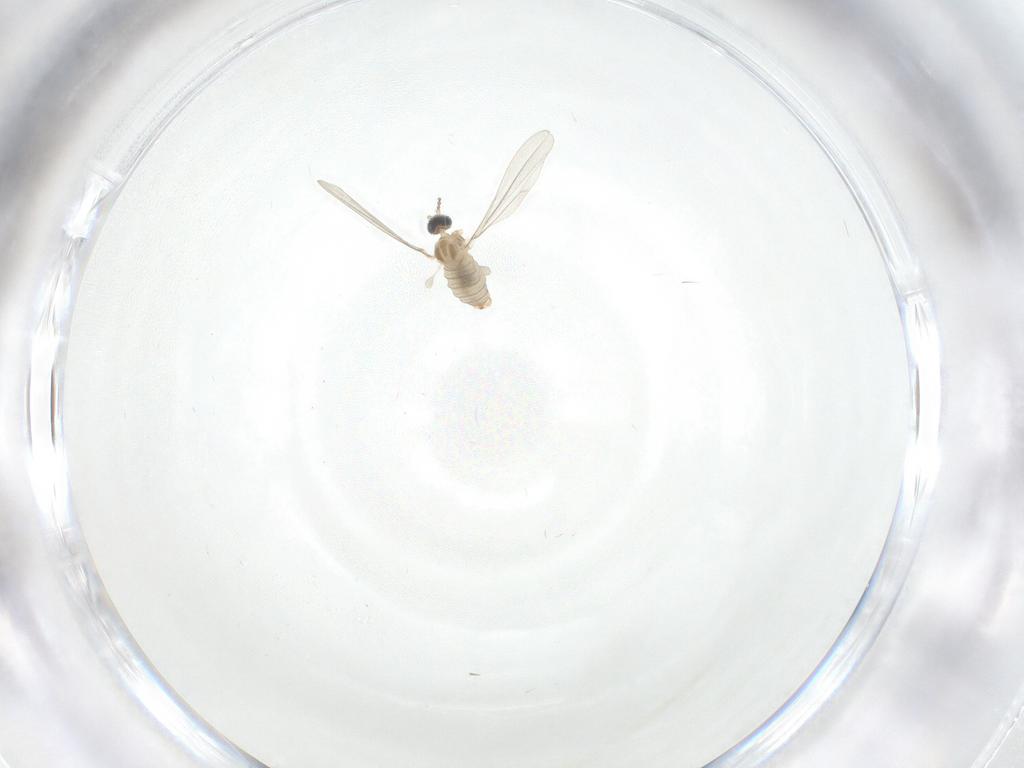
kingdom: Animalia
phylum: Arthropoda
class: Insecta
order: Diptera
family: Cecidomyiidae
